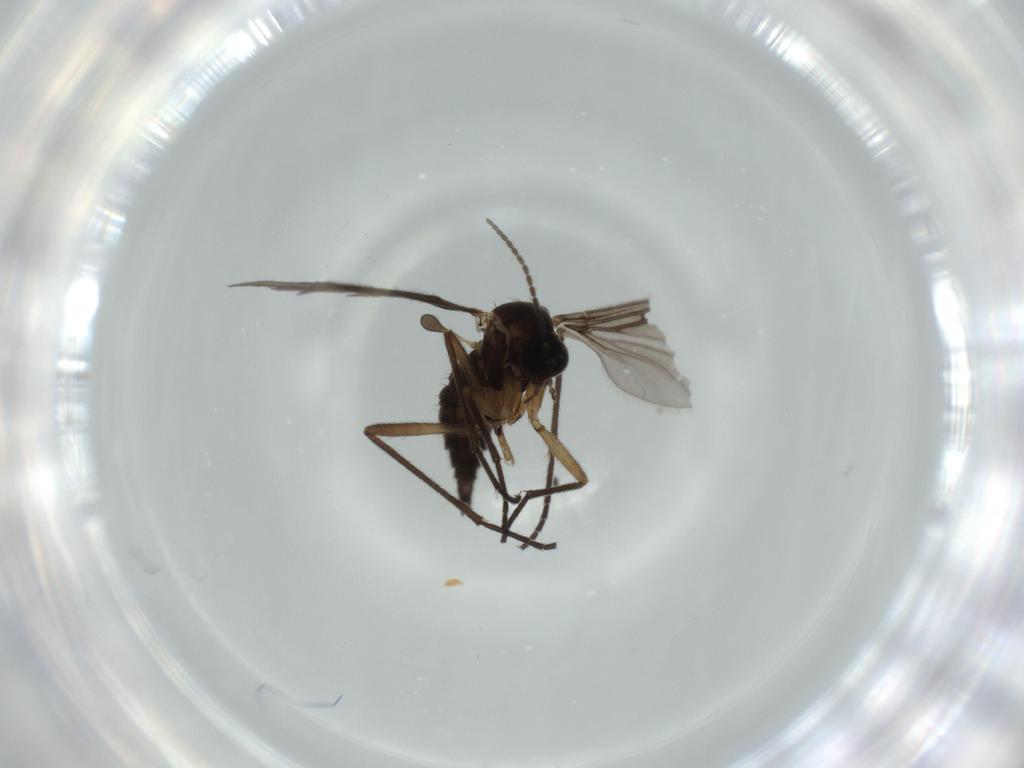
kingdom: Animalia
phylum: Arthropoda
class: Insecta
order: Diptera
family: Sciaridae
